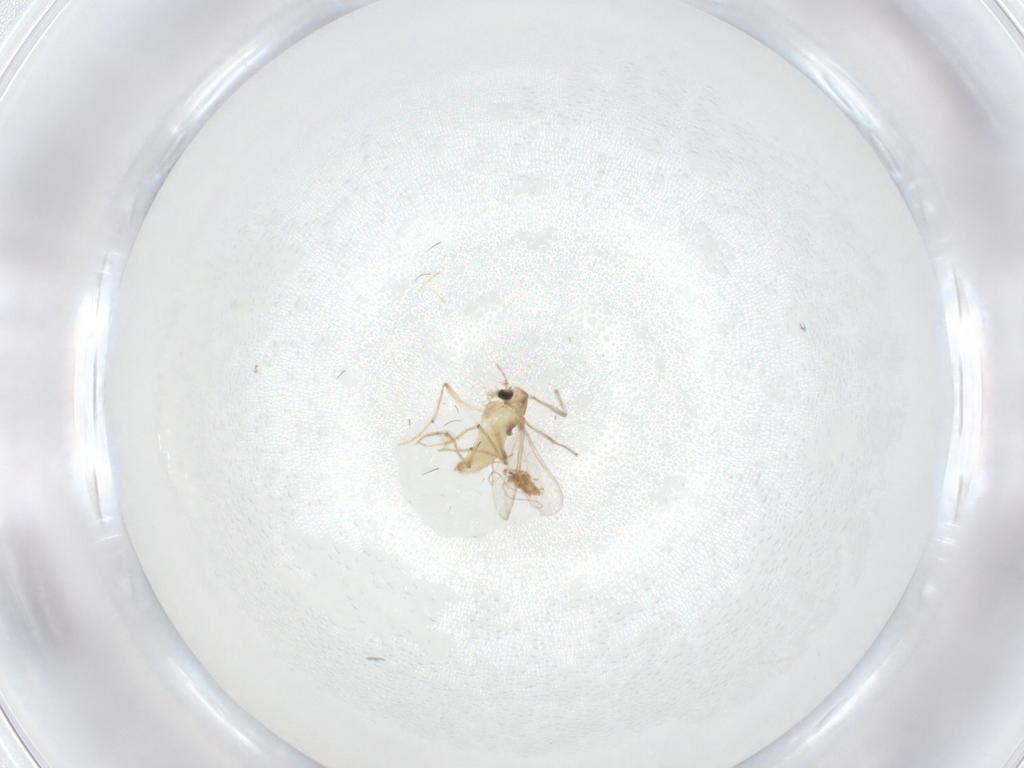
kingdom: Animalia
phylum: Arthropoda
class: Insecta
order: Diptera
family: Chironomidae
